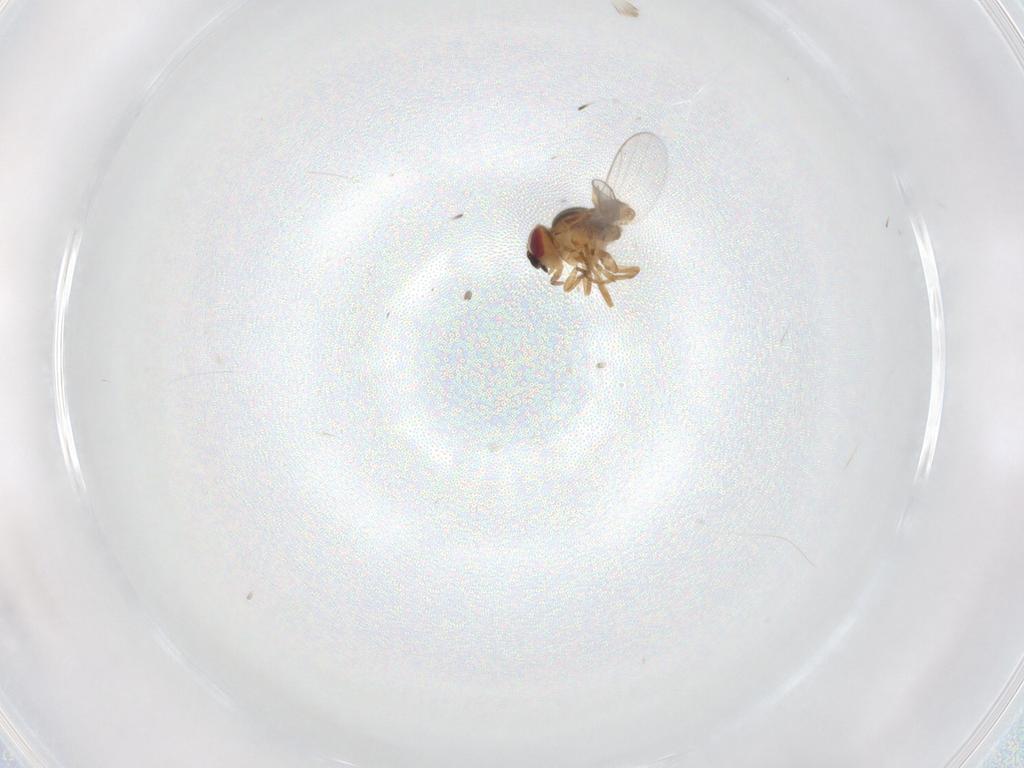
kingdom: Animalia
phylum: Arthropoda
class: Insecta
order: Diptera
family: Chloropidae
